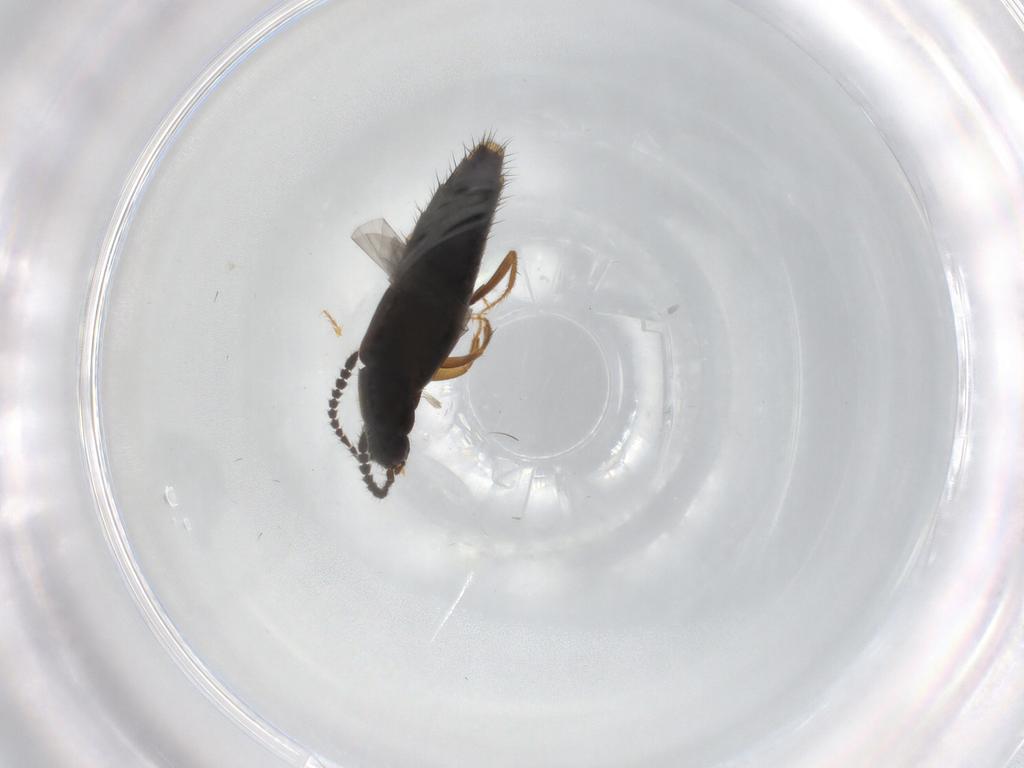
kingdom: Animalia
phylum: Arthropoda
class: Insecta
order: Coleoptera
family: Staphylinidae
